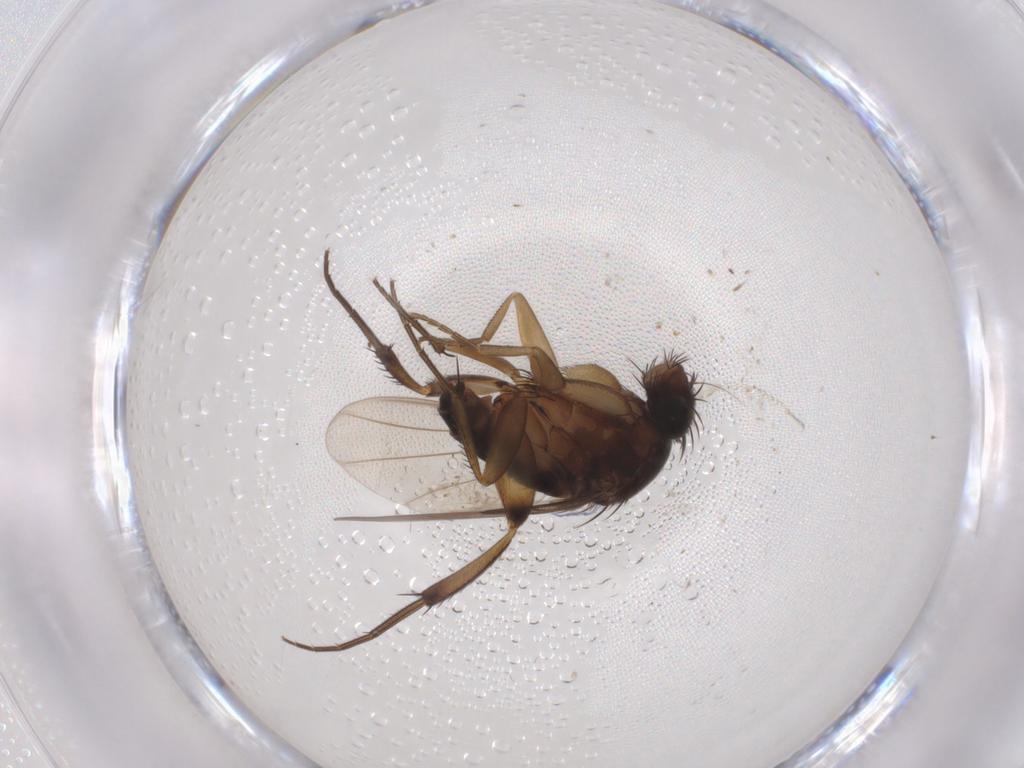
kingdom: Animalia
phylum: Arthropoda
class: Insecta
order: Diptera
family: Phoridae
